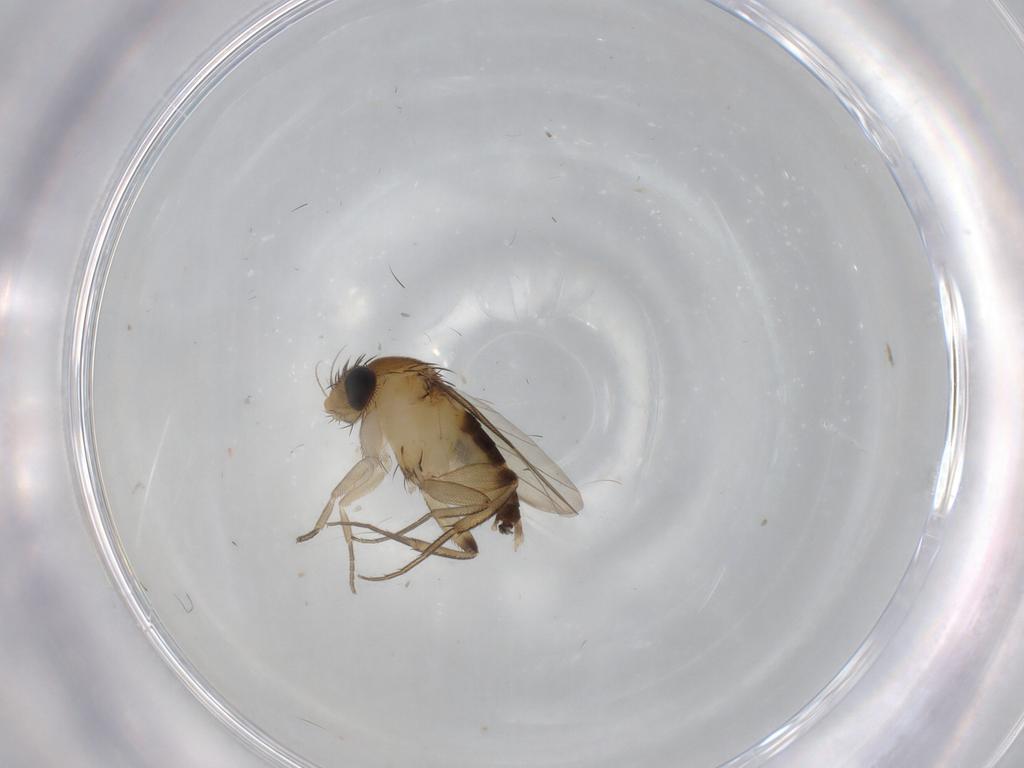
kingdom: Animalia
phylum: Arthropoda
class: Insecta
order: Diptera
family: Phoridae
